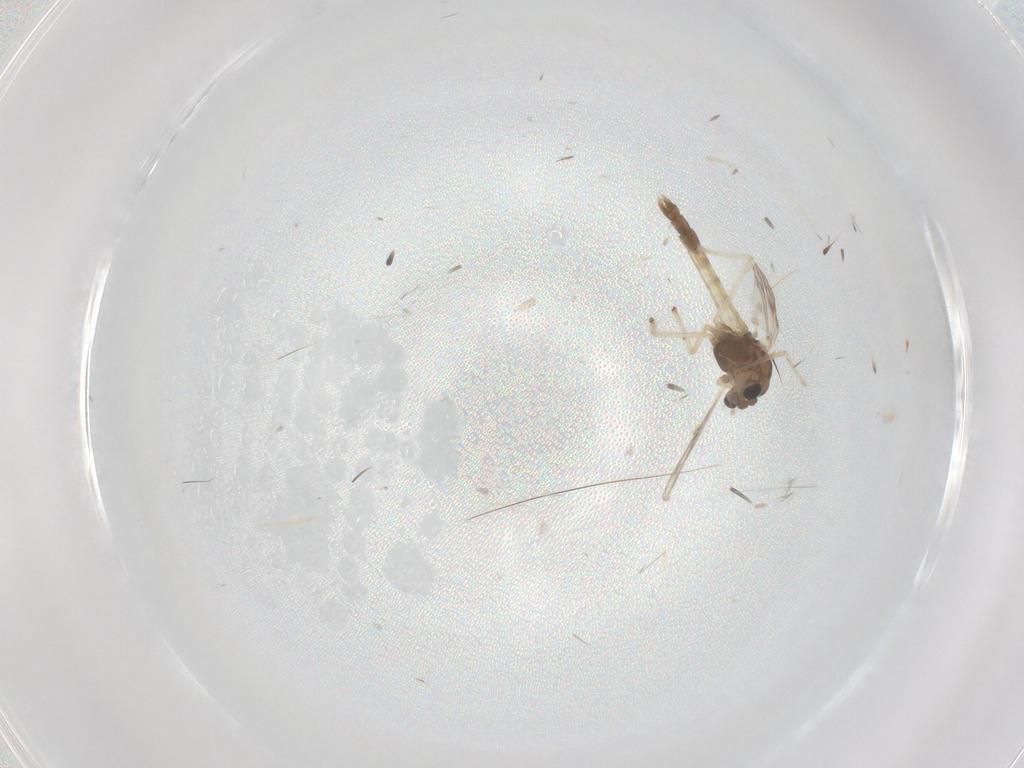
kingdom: Animalia
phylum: Arthropoda
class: Insecta
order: Diptera
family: Chironomidae
